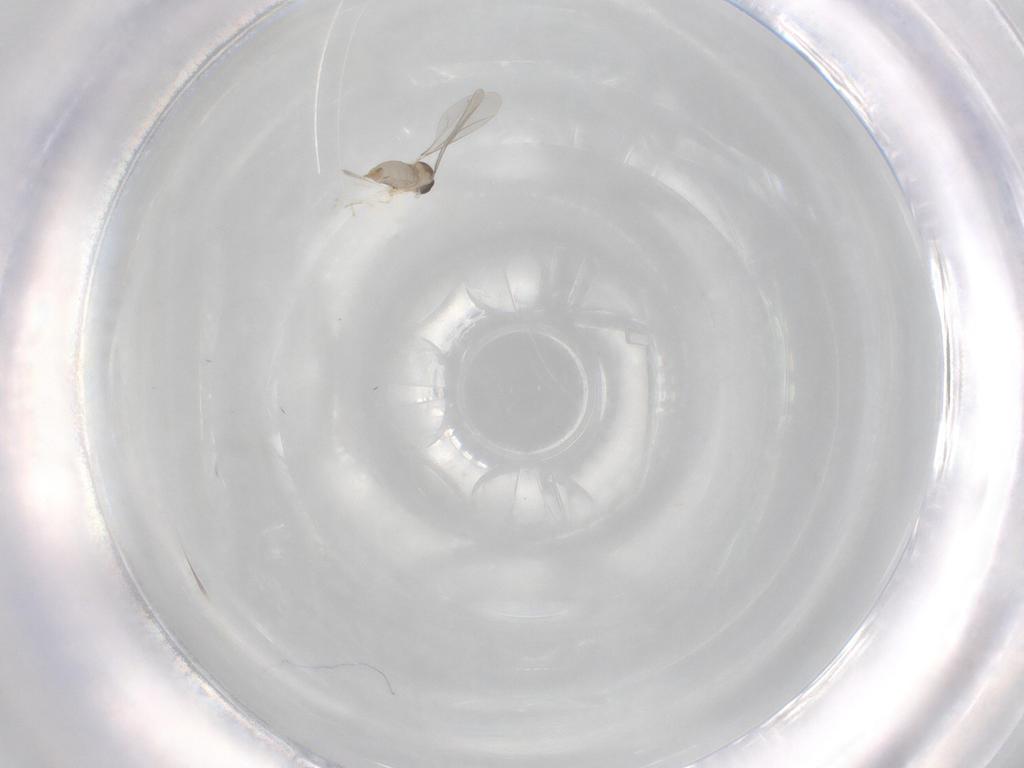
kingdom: Animalia
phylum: Arthropoda
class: Insecta
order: Diptera
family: Cecidomyiidae
